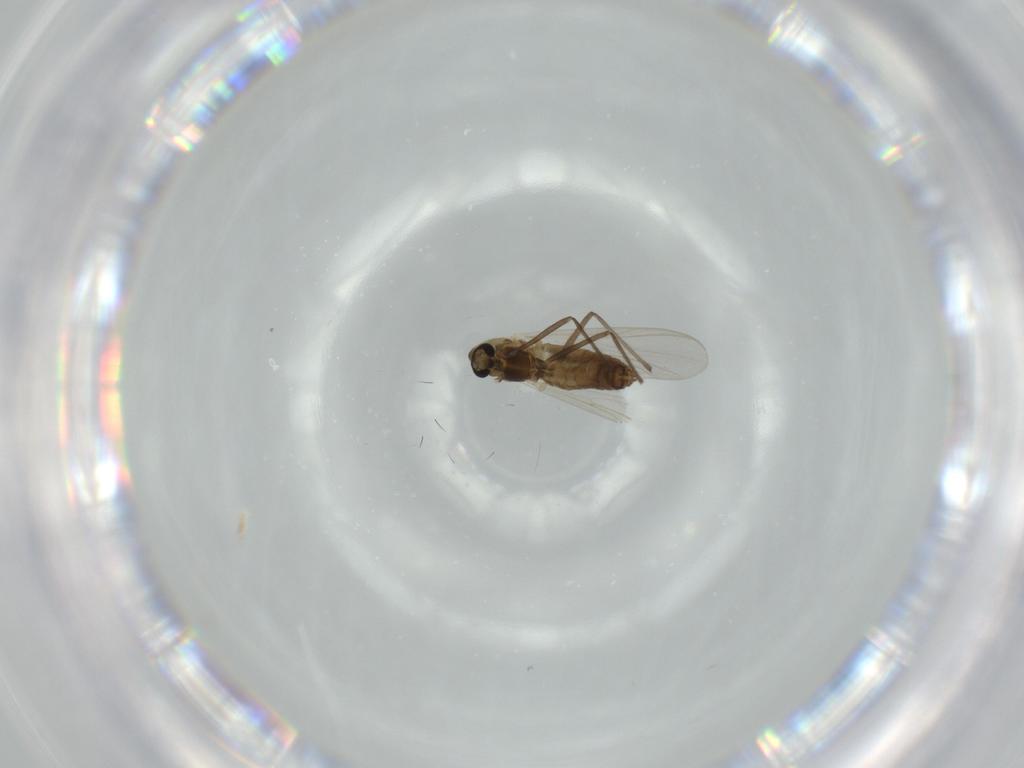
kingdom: Animalia
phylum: Arthropoda
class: Insecta
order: Diptera
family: Chironomidae
